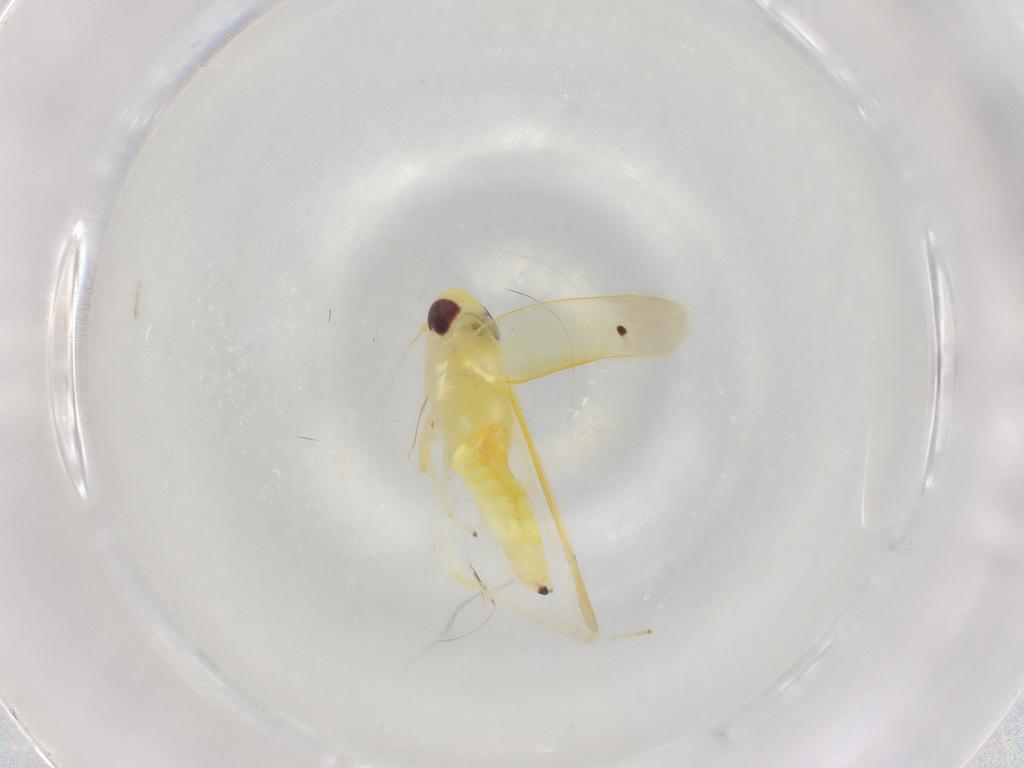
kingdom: Animalia
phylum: Arthropoda
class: Insecta
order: Hemiptera
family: Cicadellidae
